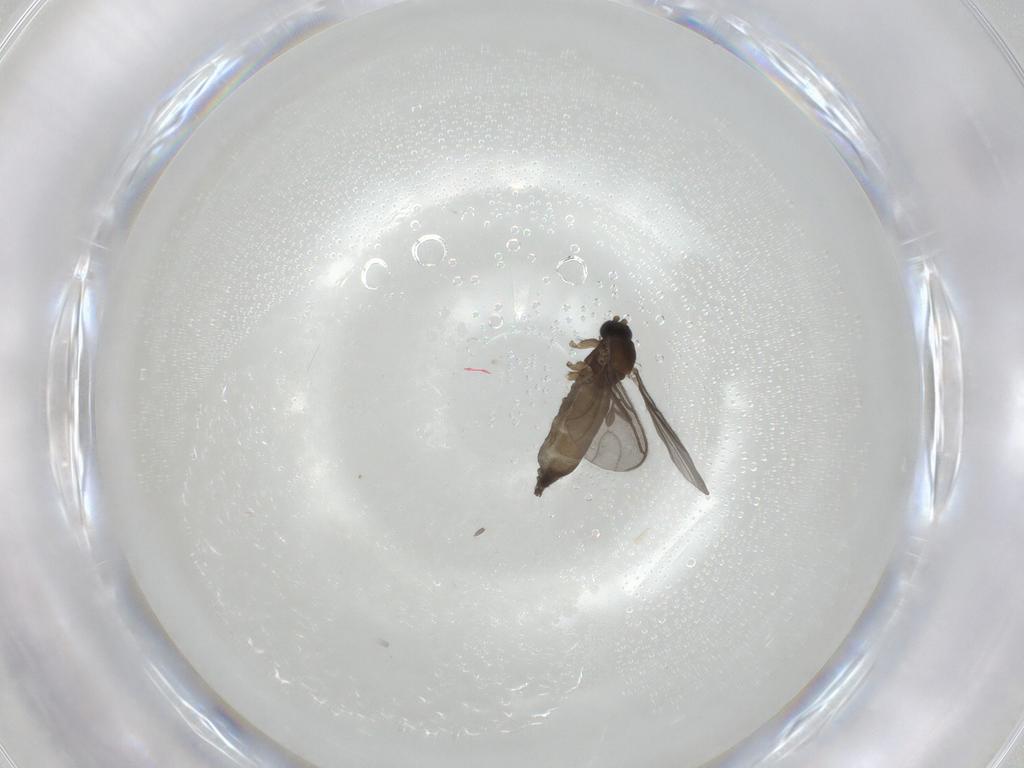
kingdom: Animalia
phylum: Arthropoda
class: Insecta
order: Diptera
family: Sciaridae
